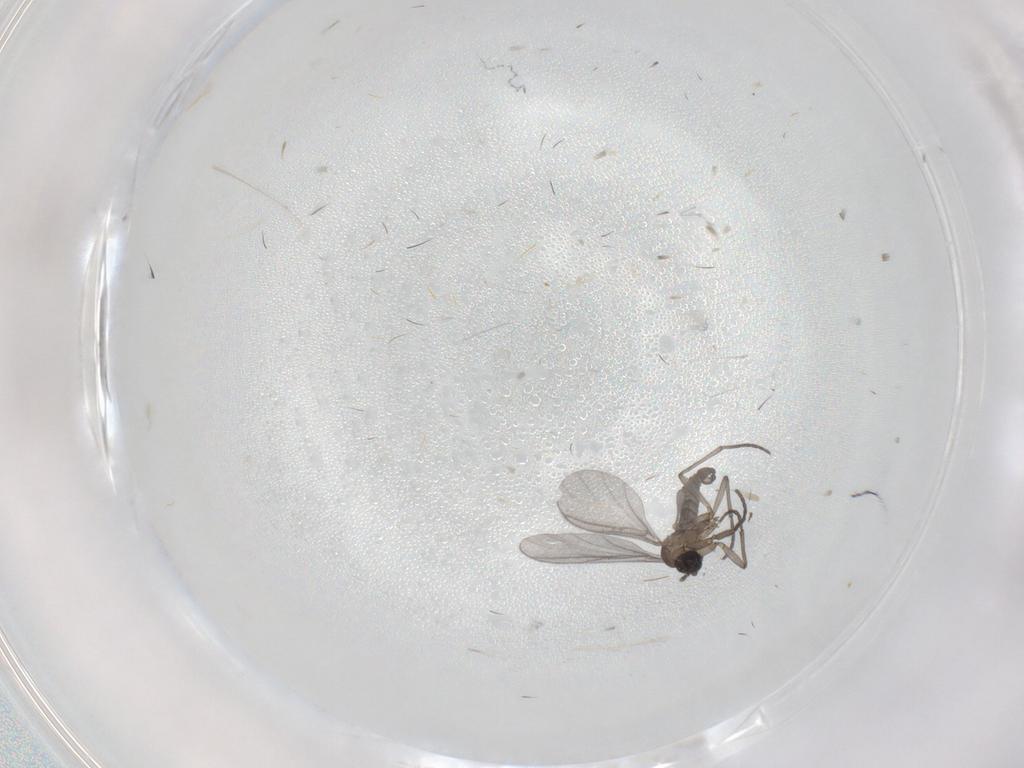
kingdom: Animalia
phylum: Arthropoda
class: Insecta
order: Diptera
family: Sciaridae
